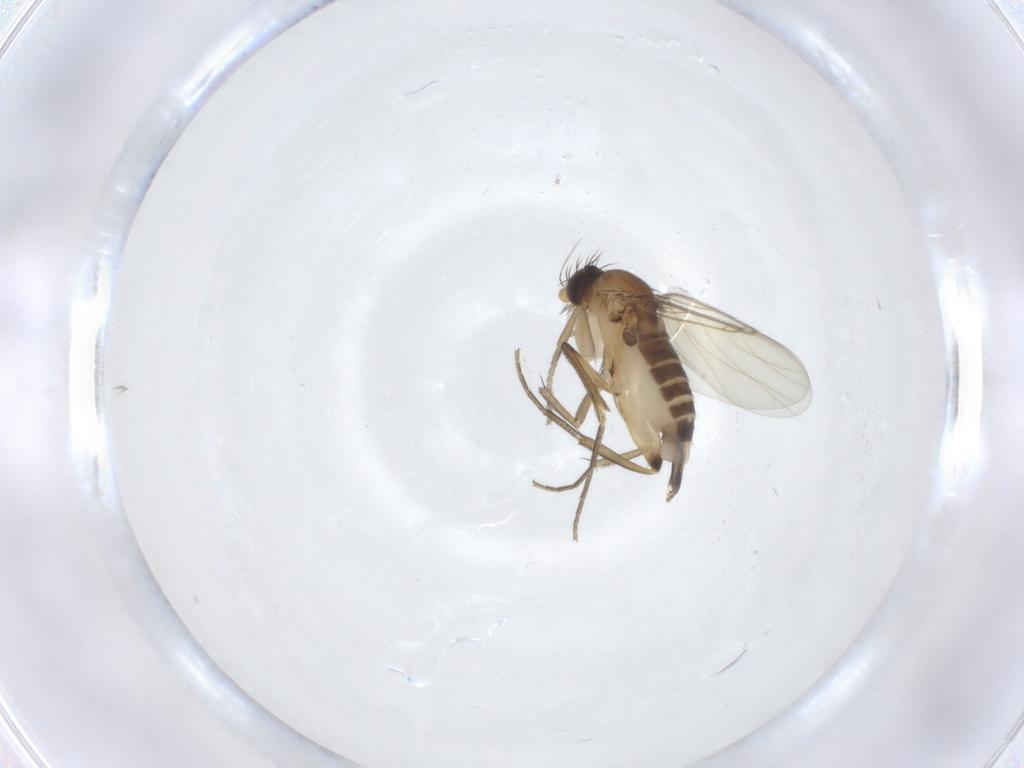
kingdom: Animalia
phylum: Arthropoda
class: Insecta
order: Diptera
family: Phoridae
